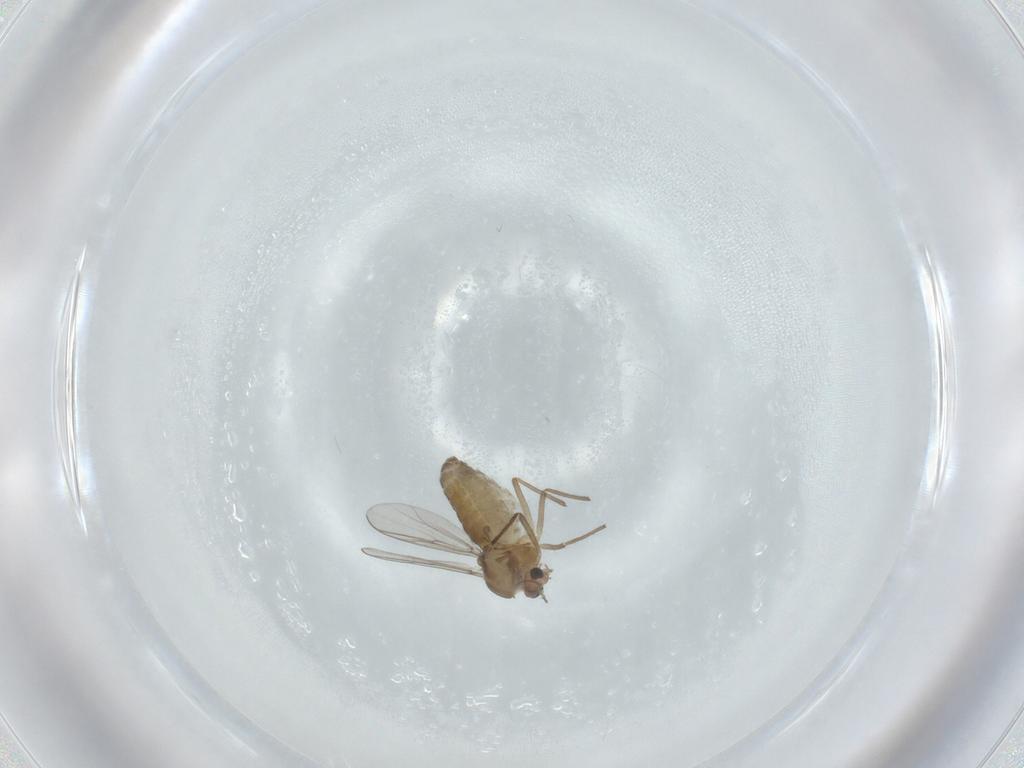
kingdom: Animalia
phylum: Arthropoda
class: Insecta
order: Diptera
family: Chironomidae
